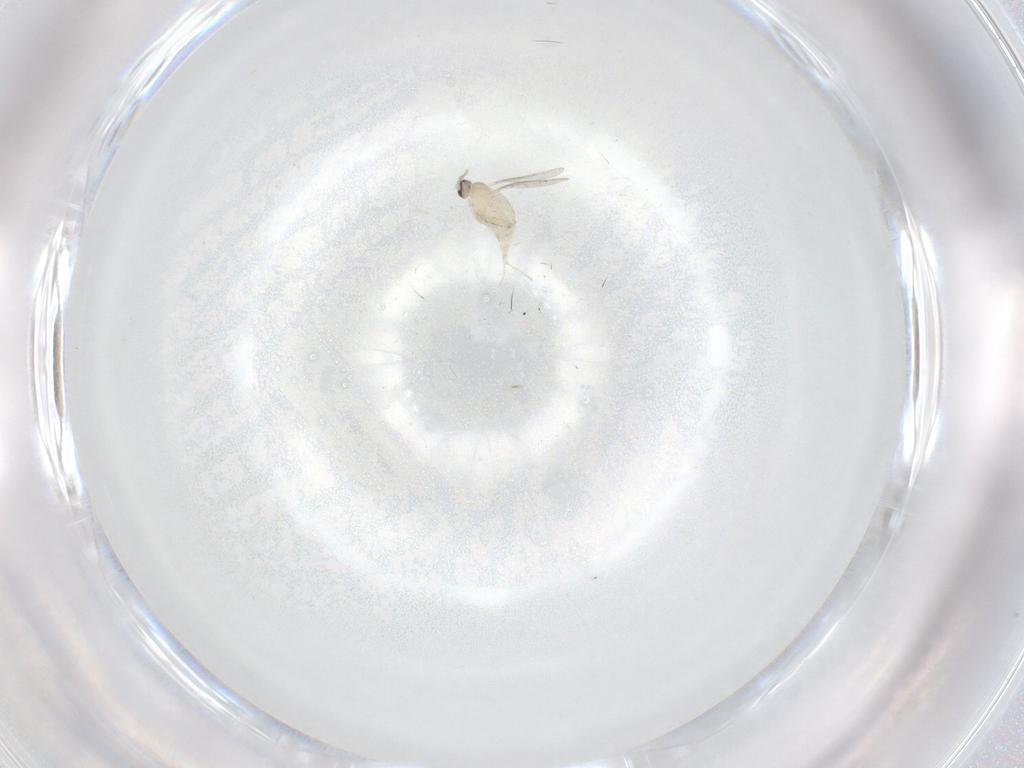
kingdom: Animalia
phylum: Arthropoda
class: Insecta
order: Diptera
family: Cecidomyiidae
